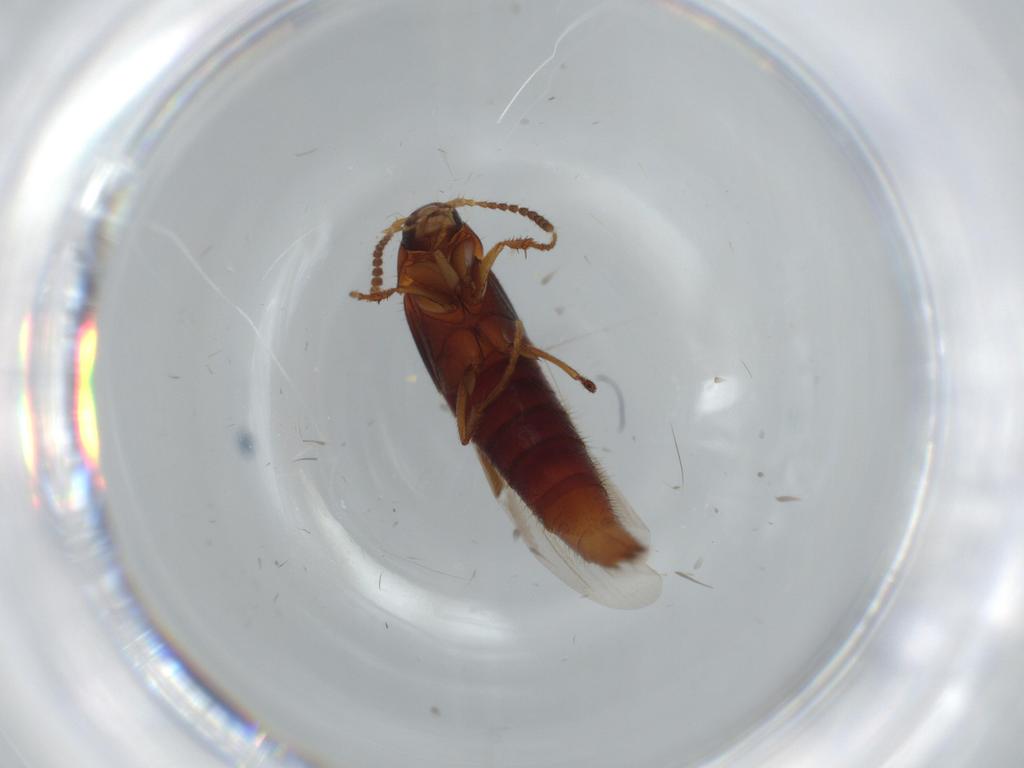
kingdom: Animalia
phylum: Arthropoda
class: Insecta
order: Coleoptera
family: Staphylinidae
